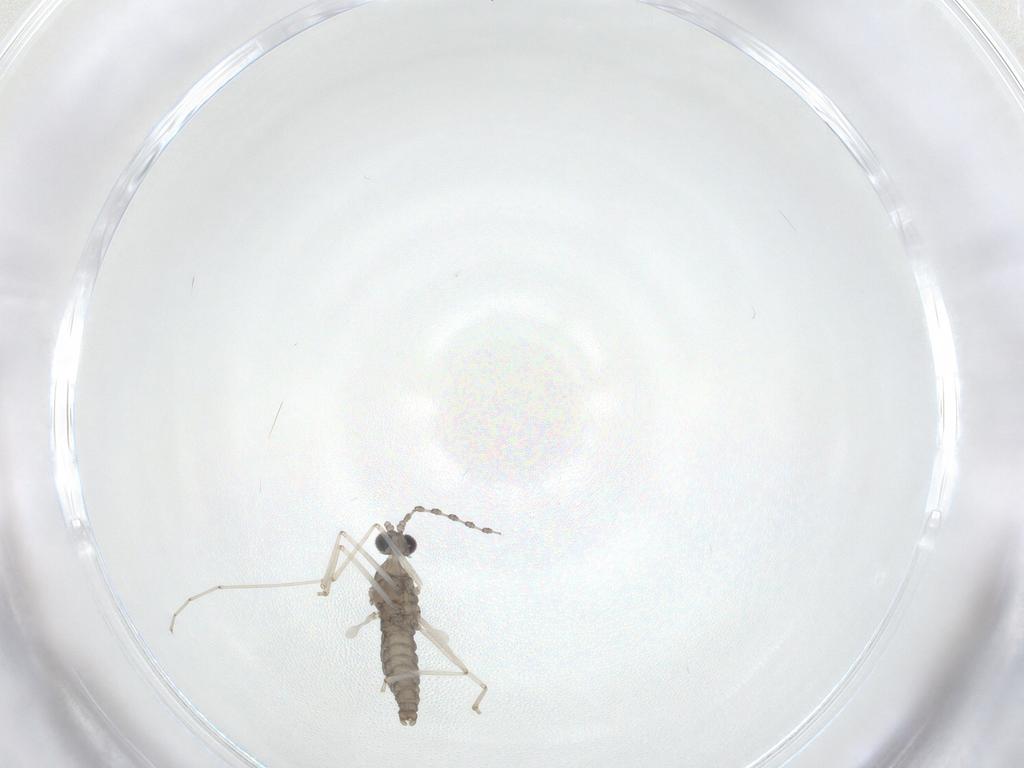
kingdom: Animalia
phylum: Arthropoda
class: Insecta
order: Diptera
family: Cecidomyiidae
